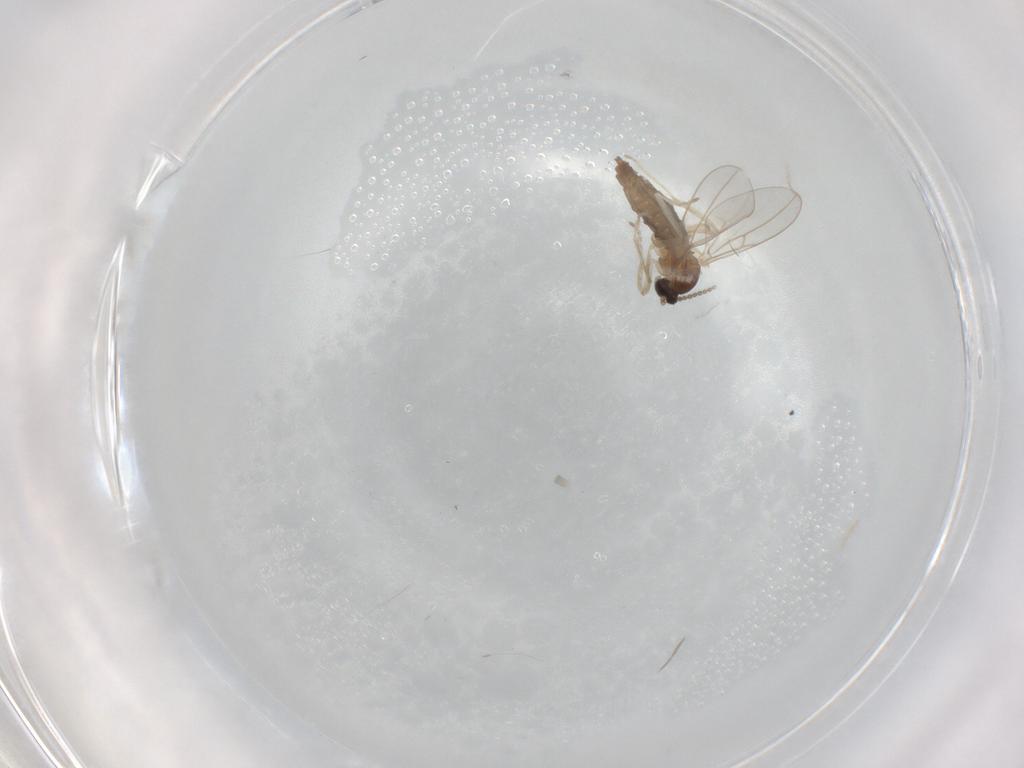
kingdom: Animalia
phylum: Arthropoda
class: Insecta
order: Diptera
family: Cecidomyiidae
